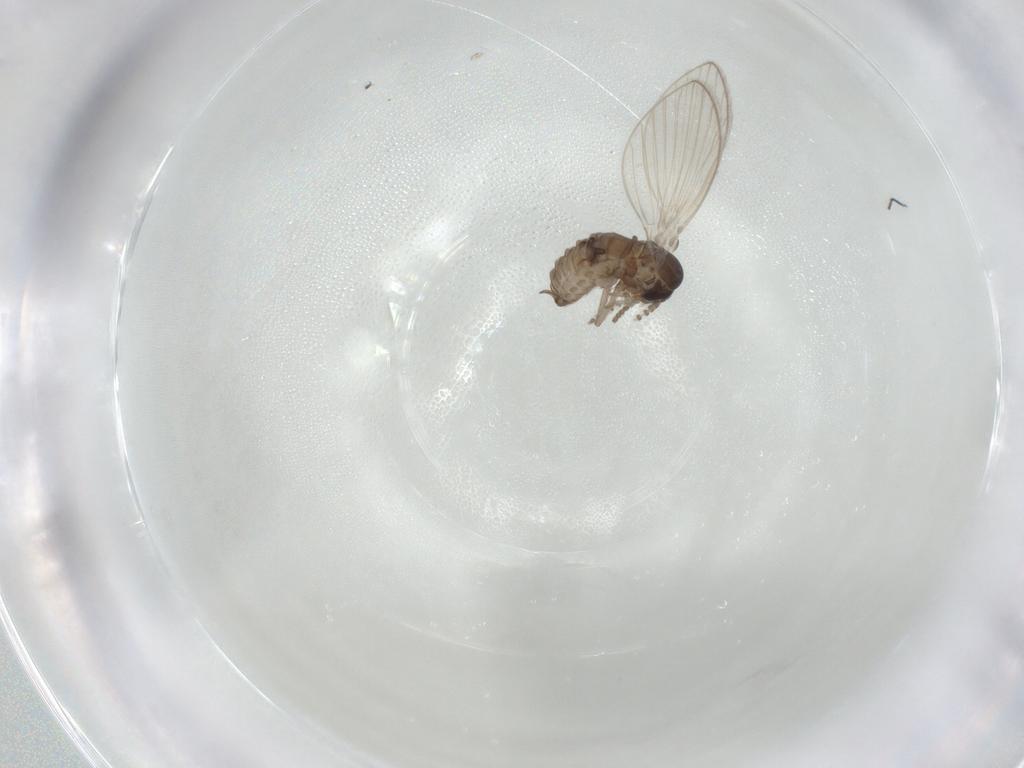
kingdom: Animalia
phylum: Arthropoda
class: Insecta
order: Diptera
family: Psychodidae
